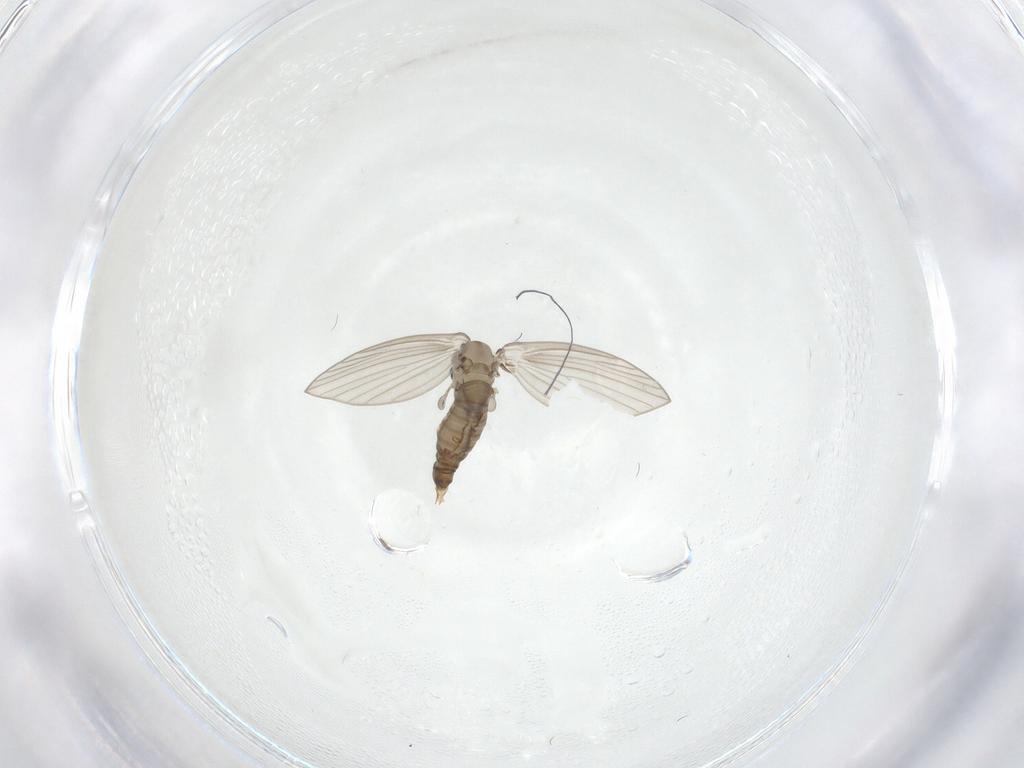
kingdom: Animalia
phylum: Arthropoda
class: Insecta
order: Diptera
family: Psychodidae
